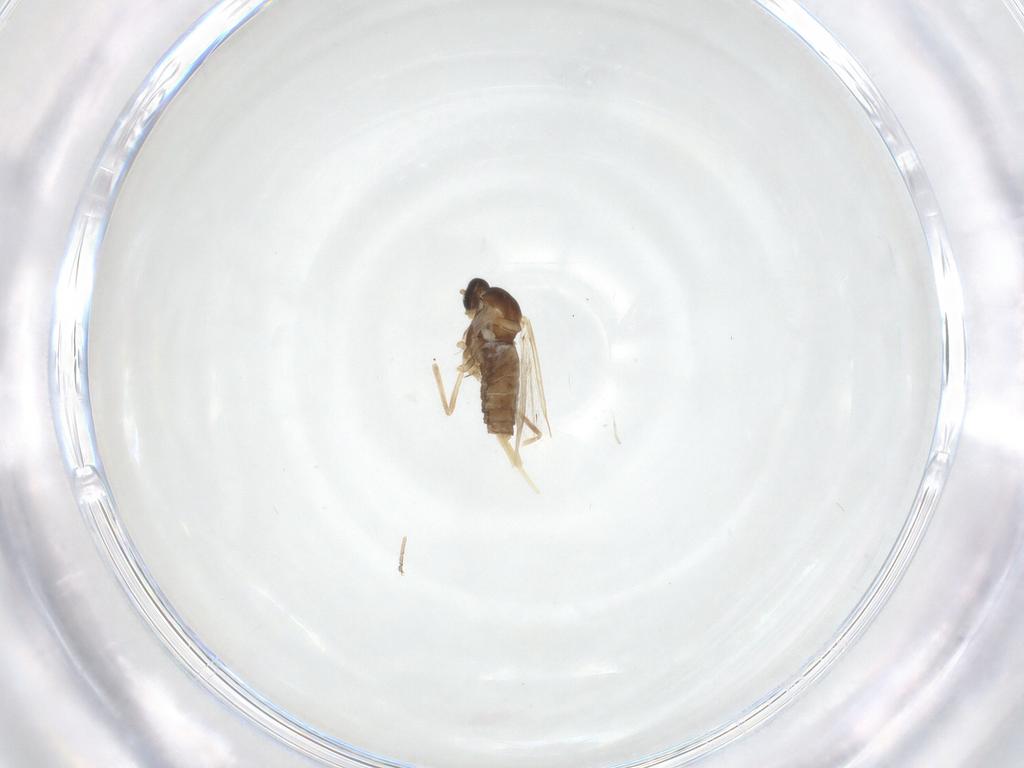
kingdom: Animalia
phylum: Arthropoda
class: Insecta
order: Diptera
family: Cecidomyiidae
